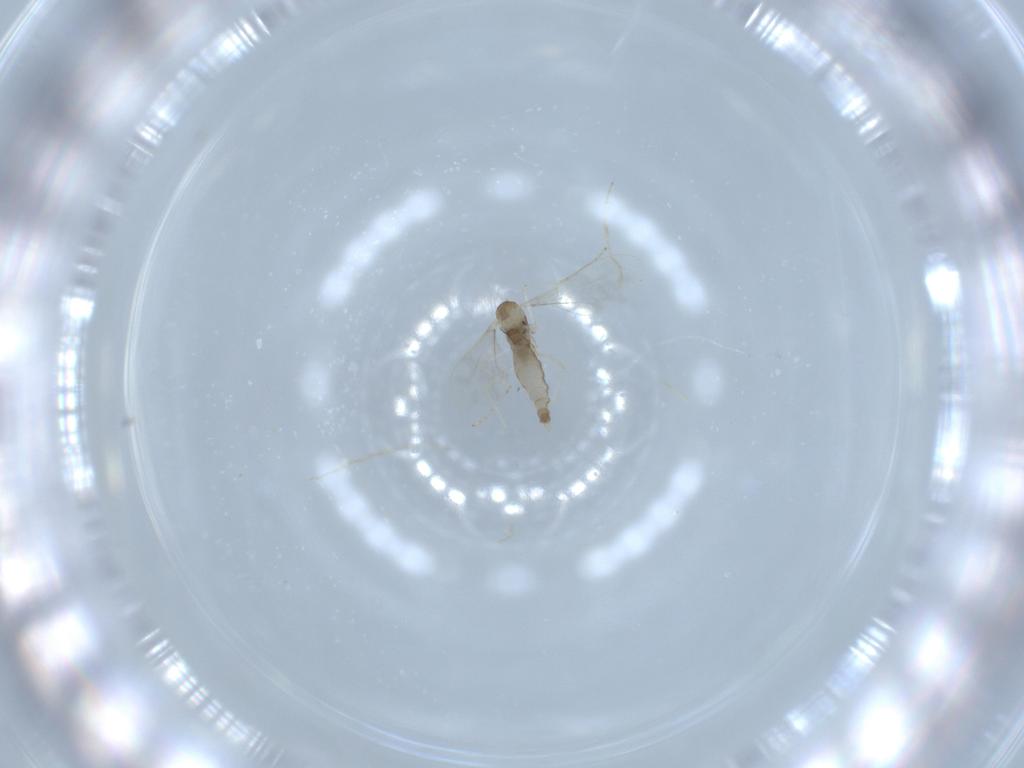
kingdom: Animalia
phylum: Arthropoda
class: Insecta
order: Diptera
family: Cecidomyiidae
